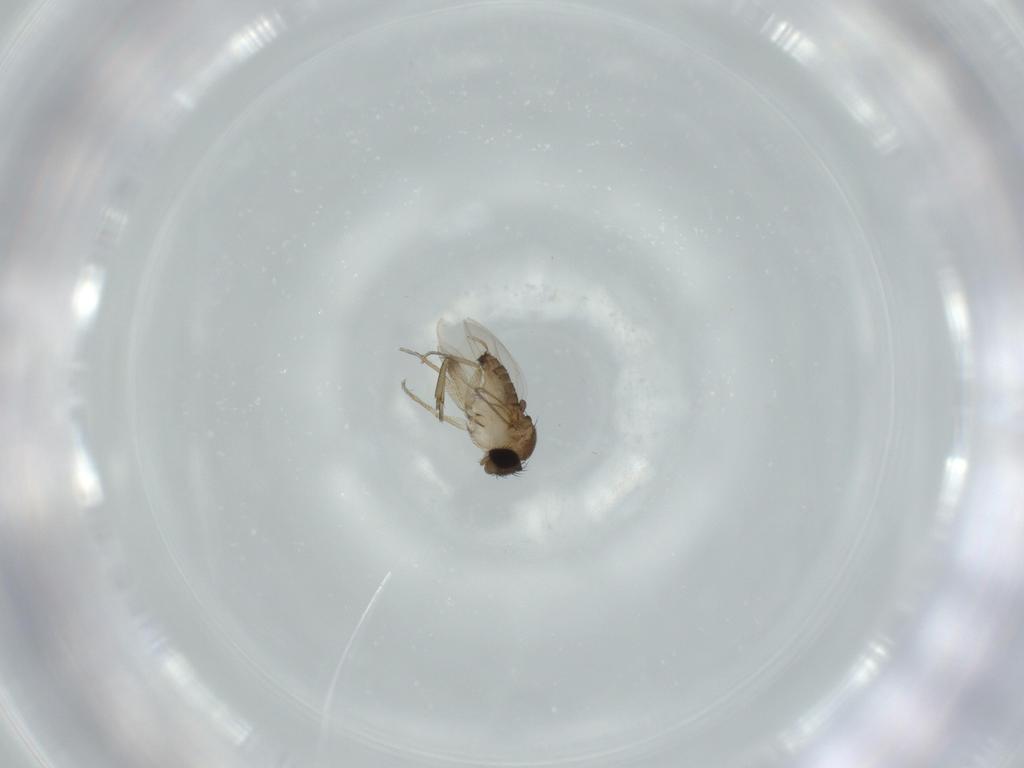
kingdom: Animalia
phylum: Arthropoda
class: Insecta
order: Diptera
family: Phoridae
